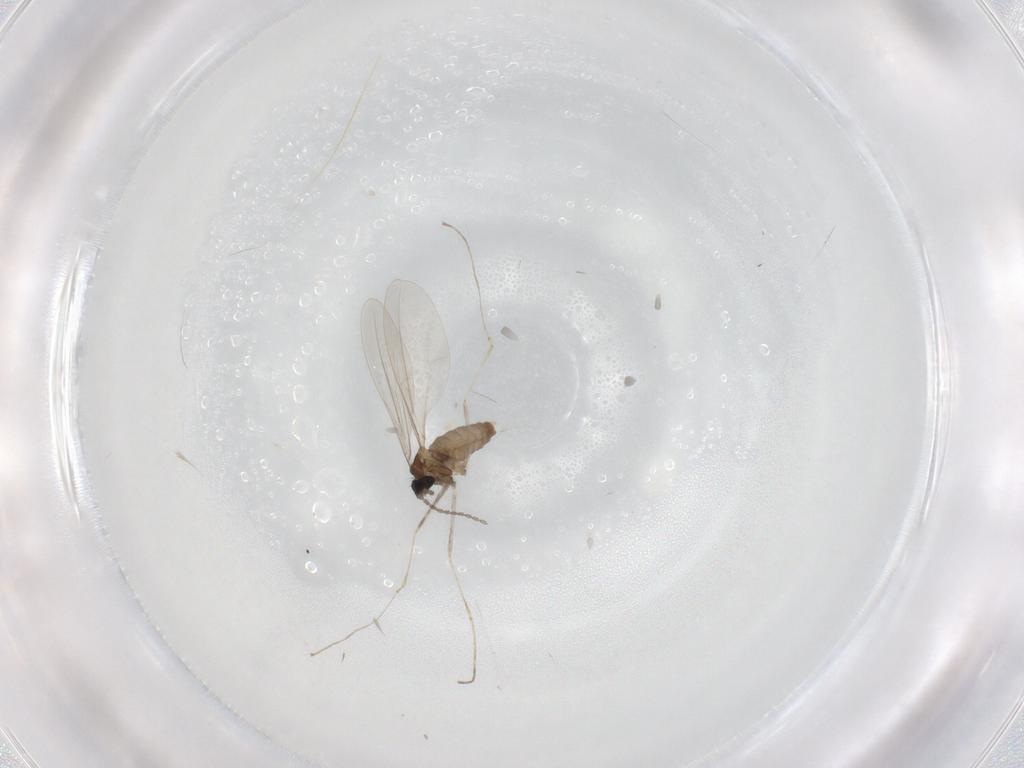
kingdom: Animalia
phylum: Arthropoda
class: Insecta
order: Diptera
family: Cecidomyiidae
